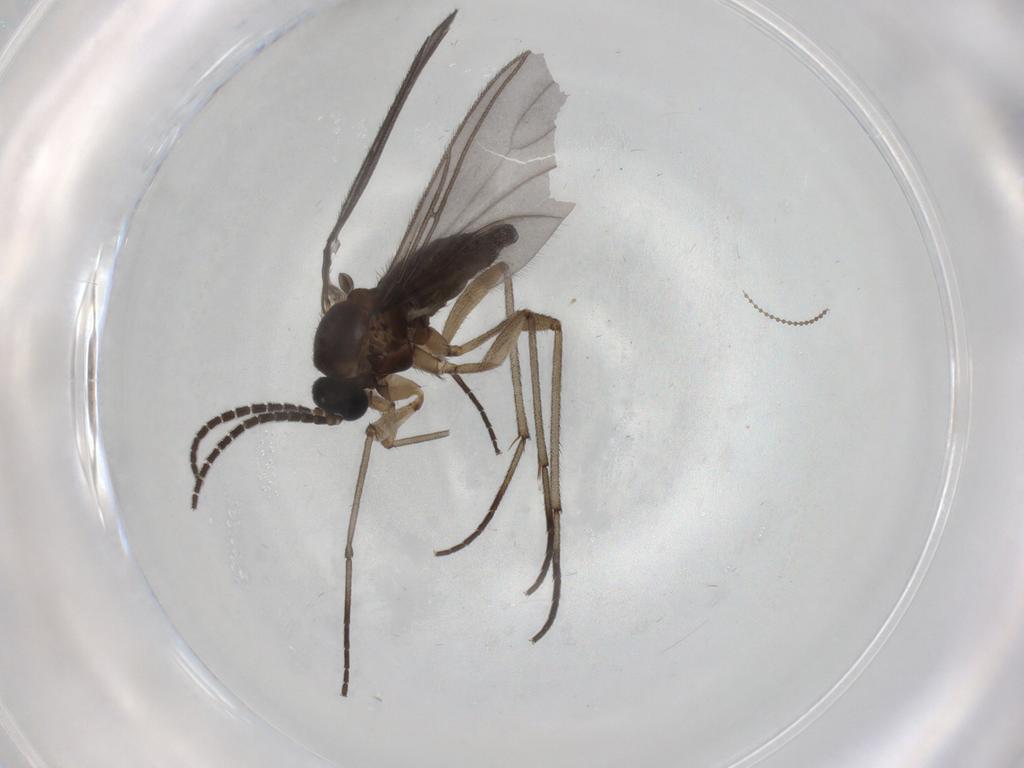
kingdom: Animalia
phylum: Arthropoda
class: Insecta
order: Diptera
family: Sciaridae
